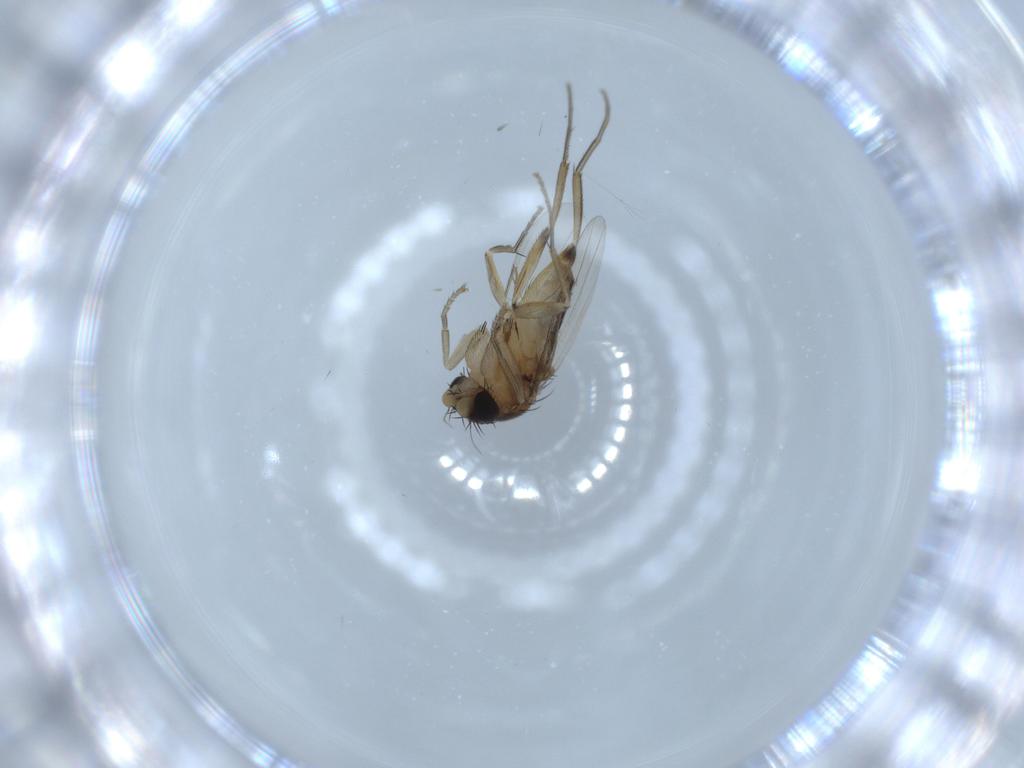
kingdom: Animalia
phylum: Arthropoda
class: Insecta
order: Diptera
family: Phoridae
